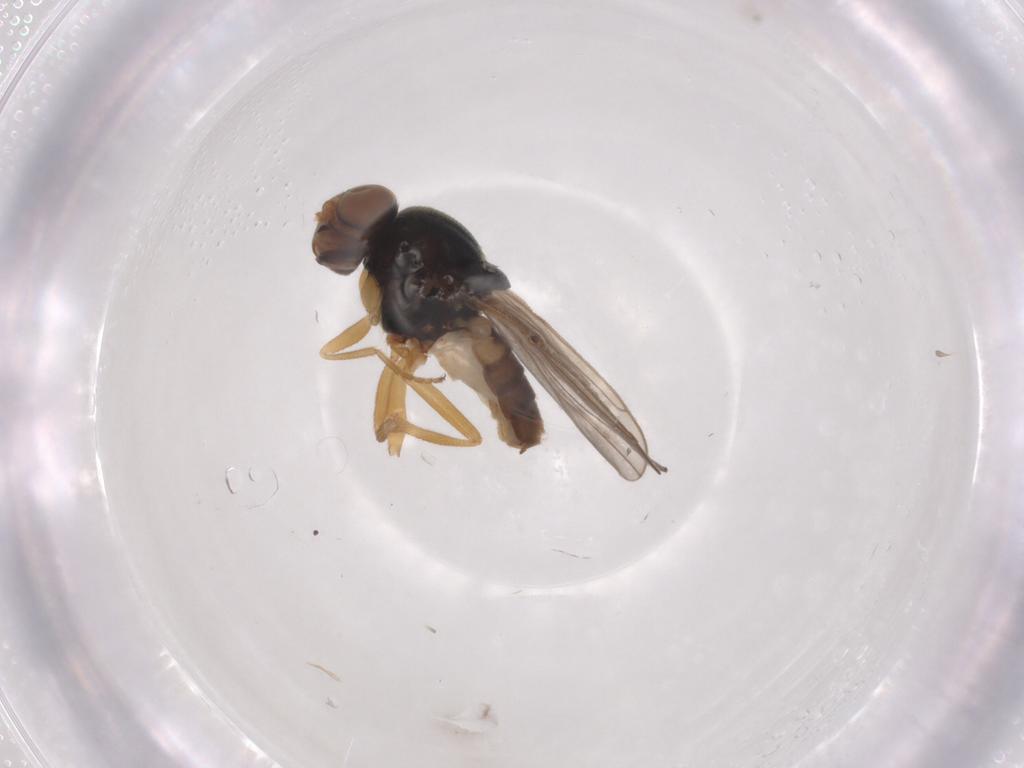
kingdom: Animalia
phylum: Arthropoda
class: Insecta
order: Diptera
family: Chloropidae
